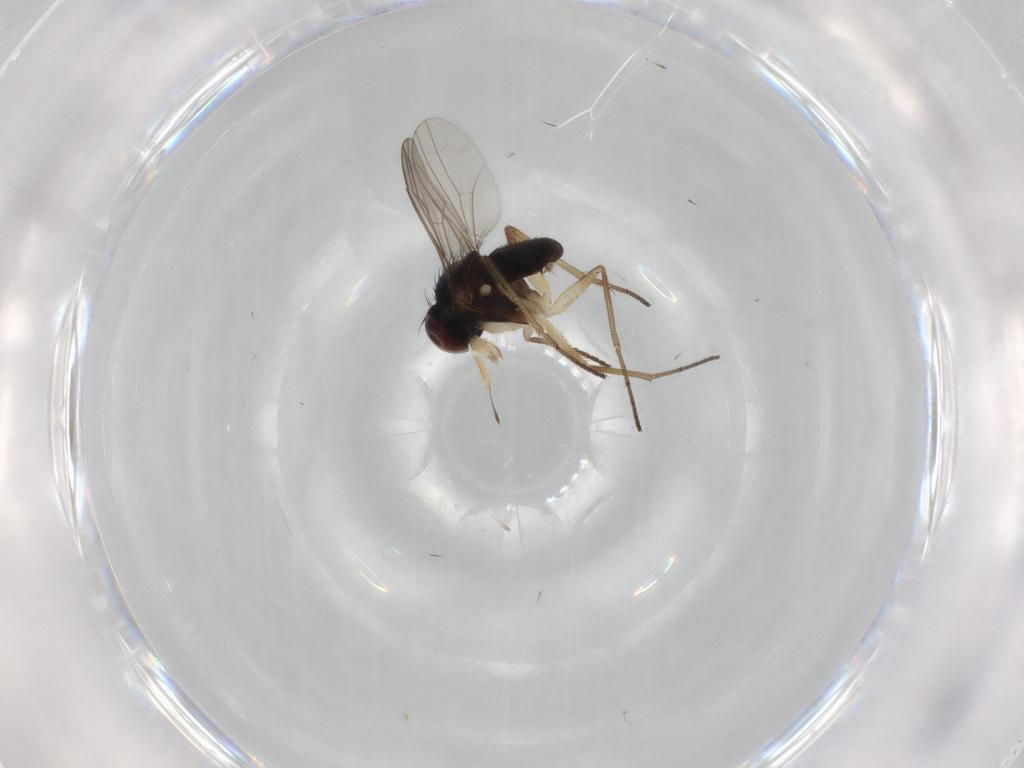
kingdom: Animalia
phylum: Arthropoda
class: Insecta
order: Diptera
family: Dolichopodidae
